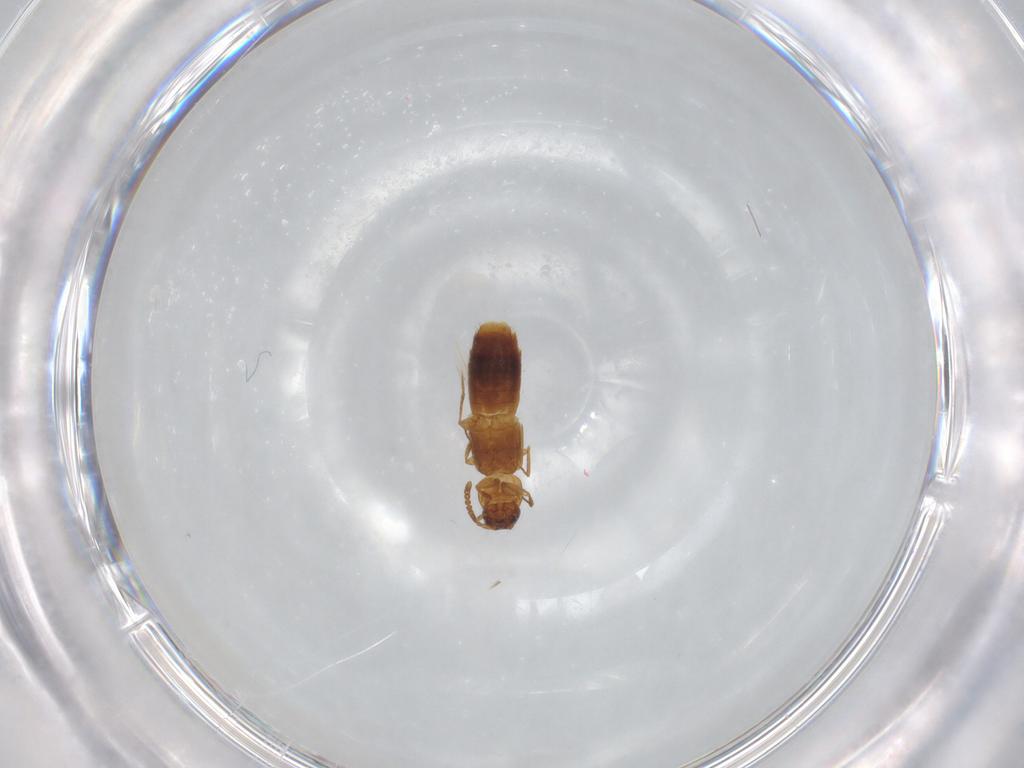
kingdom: Animalia
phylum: Arthropoda
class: Insecta
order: Coleoptera
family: Staphylinidae
